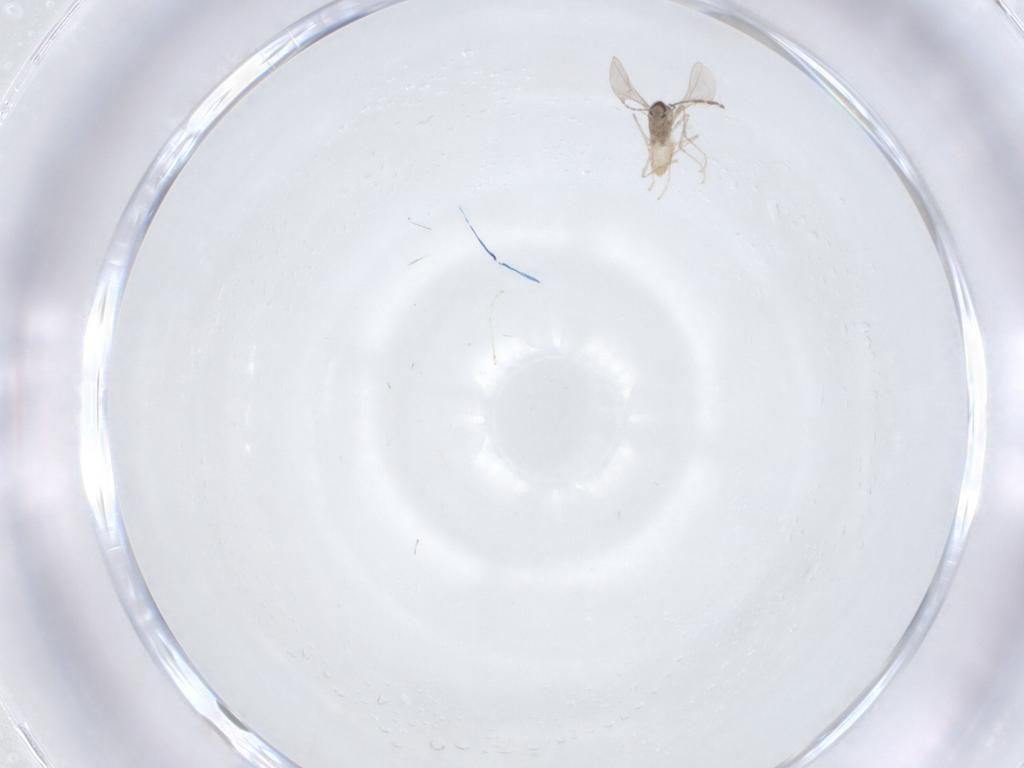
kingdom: Animalia
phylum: Arthropoda
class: Insecta
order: Diptera
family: Cecidomyiidae
